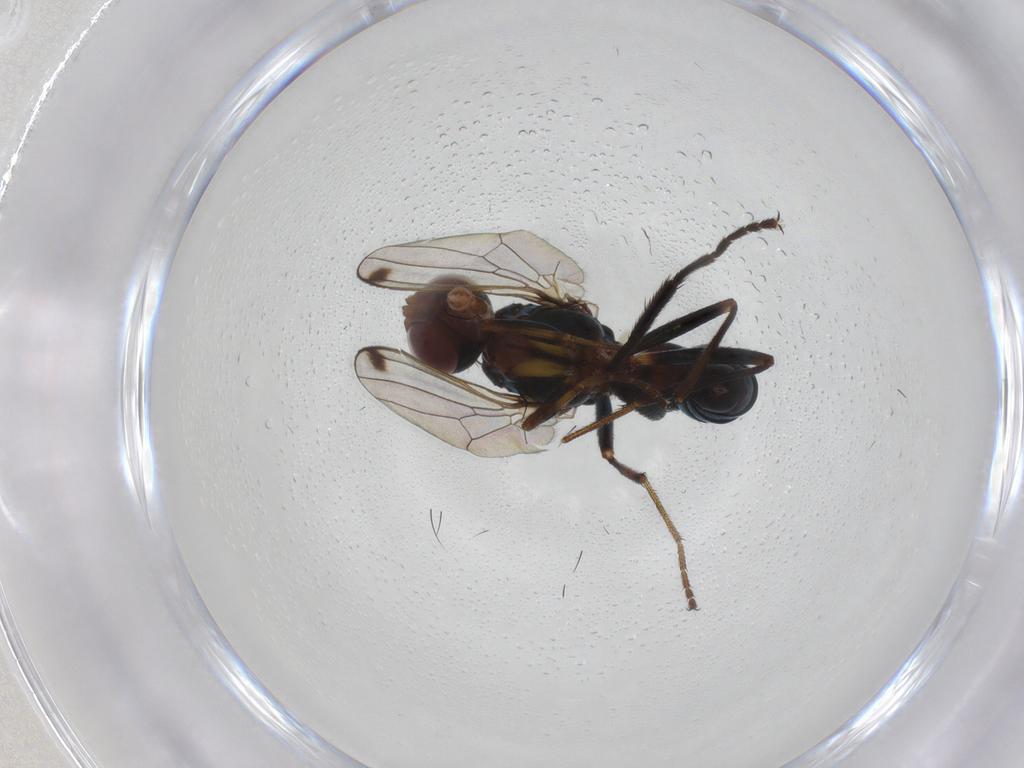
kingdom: Animalia
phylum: Arthropoda
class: Insecta
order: Diptera
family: Sepsidae
